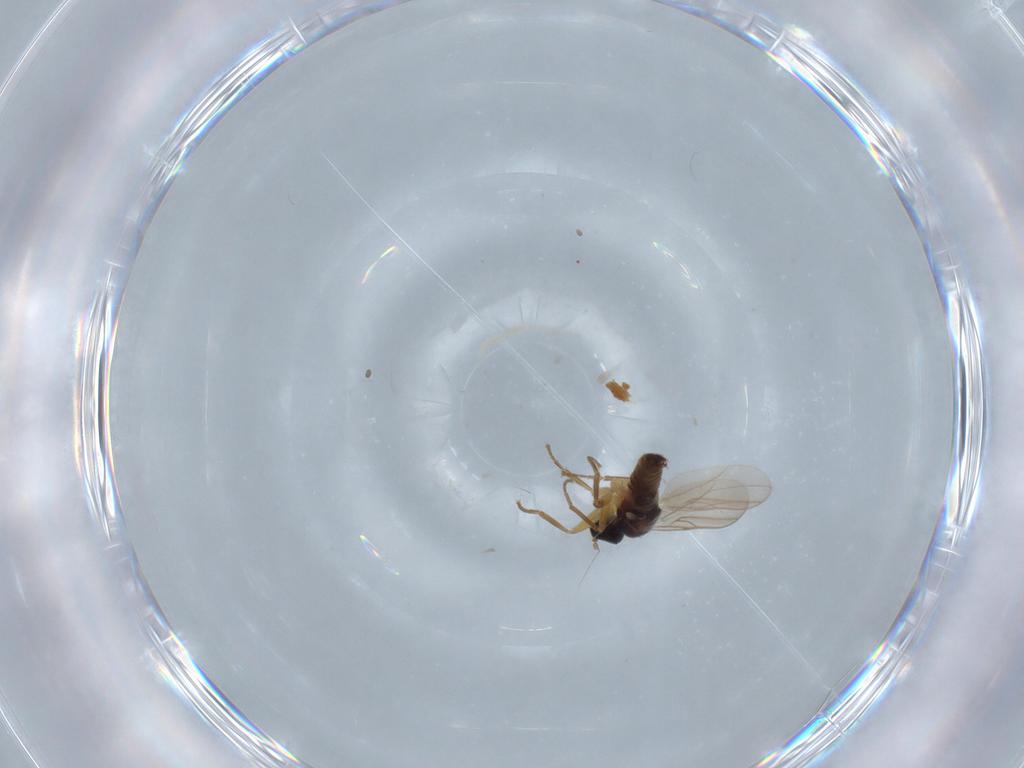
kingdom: Animalia
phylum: Arthropoda
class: Insecta
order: Diptera
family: Hybotidae
